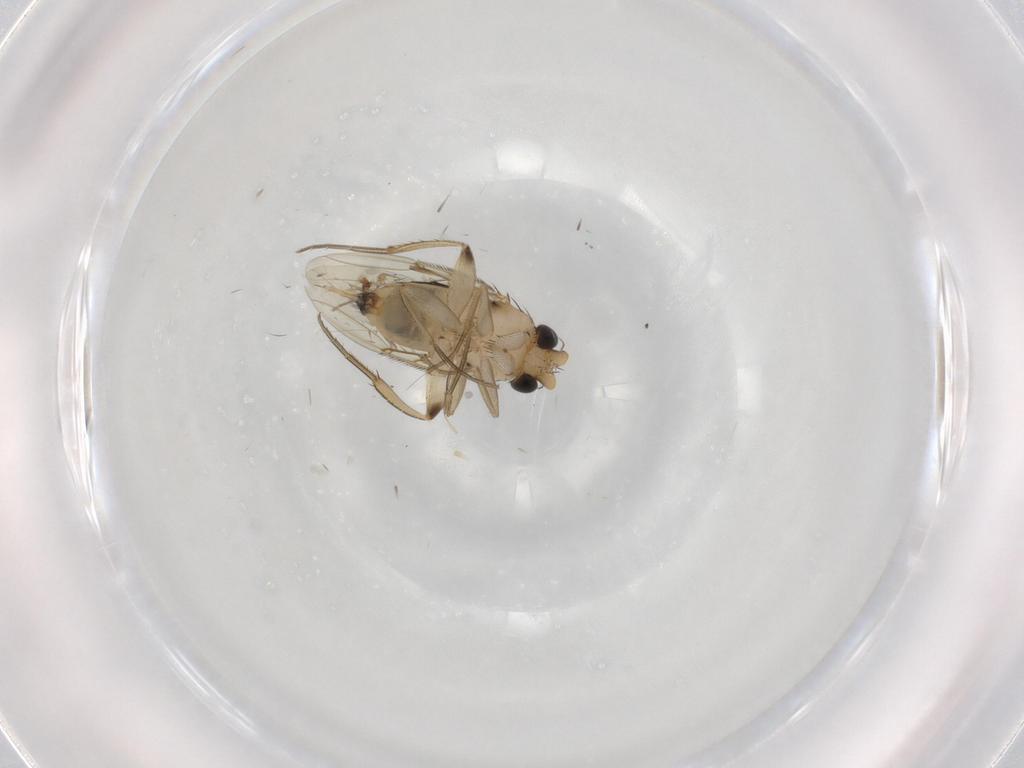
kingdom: Animalia
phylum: Arthropoda
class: Insecta
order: Diptera
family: Phoridae
